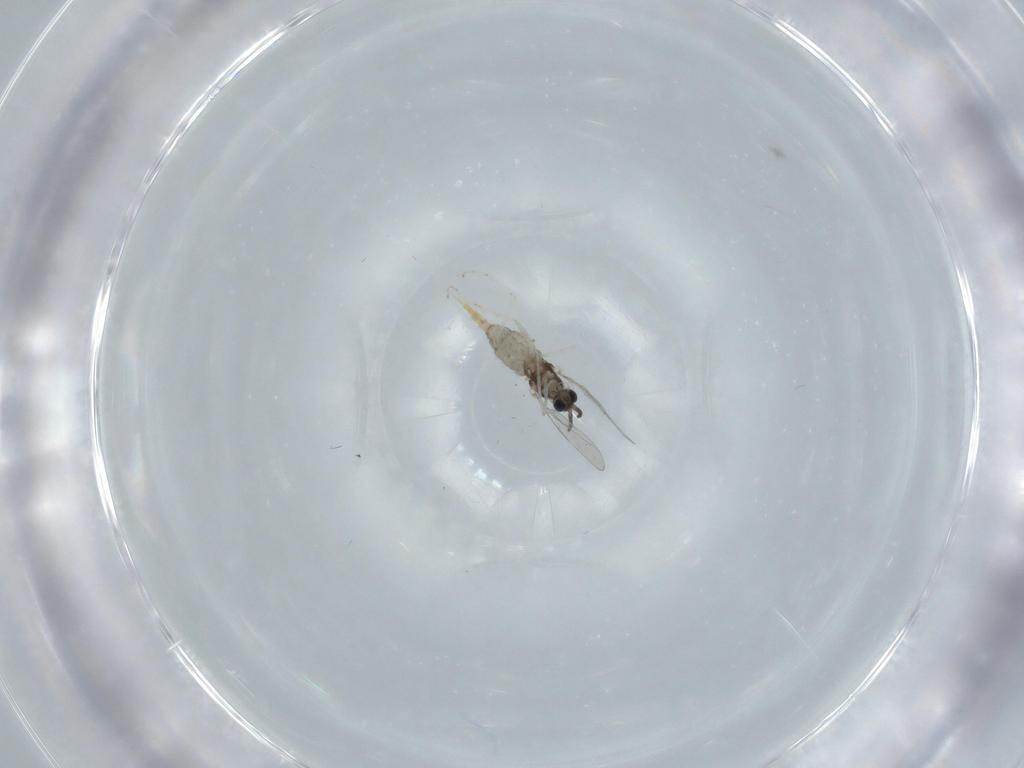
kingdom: Animalia
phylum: Arthropoda
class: Insecta
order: Diptera
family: Cecidomyiidae
